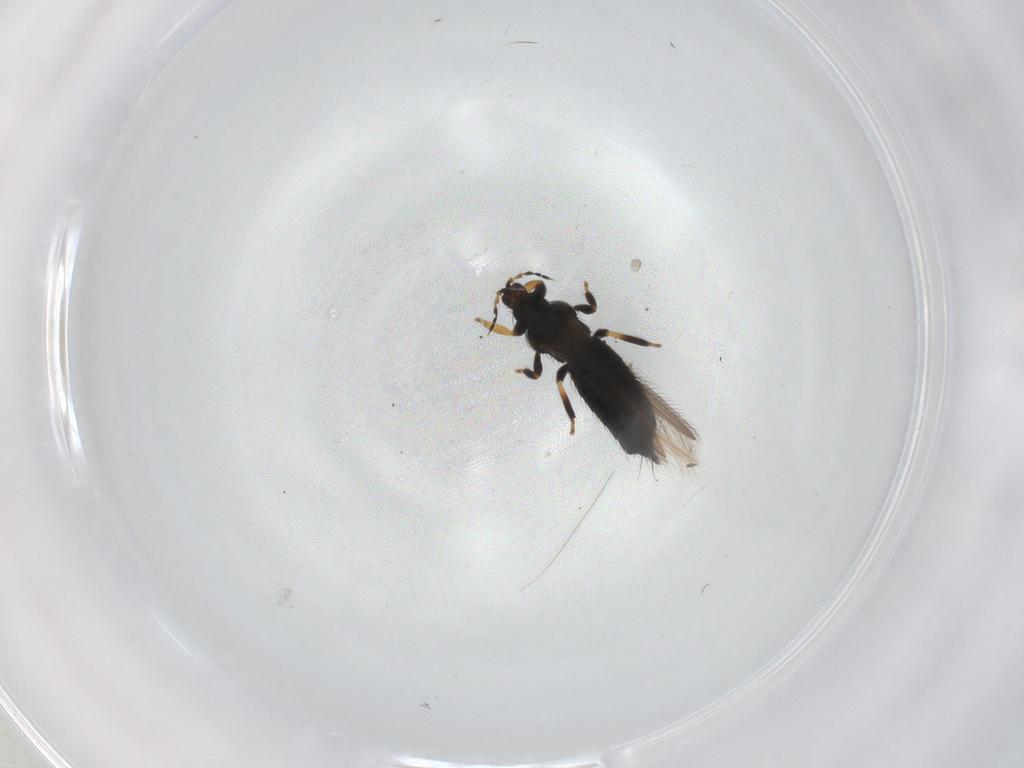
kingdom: Animalia
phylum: Arthropoda
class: Insecta
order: Thysanoptera
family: Thripidae
